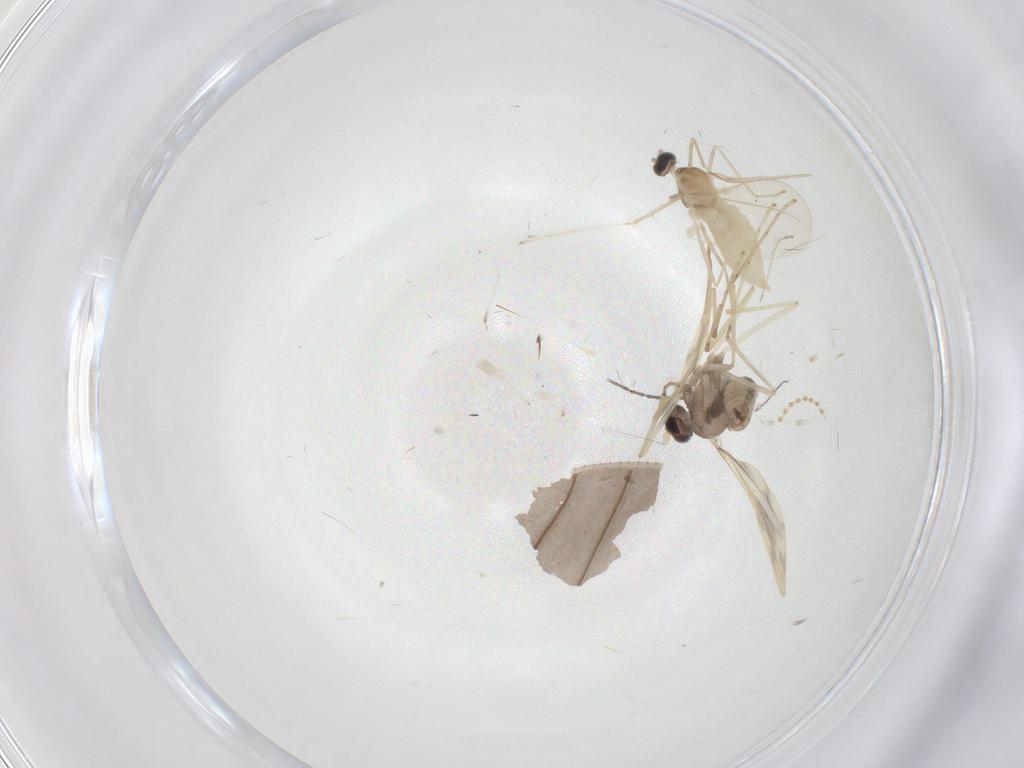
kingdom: Animalia
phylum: Arthropoda
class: Insecta
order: Diptera
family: Cecidomyiidae
